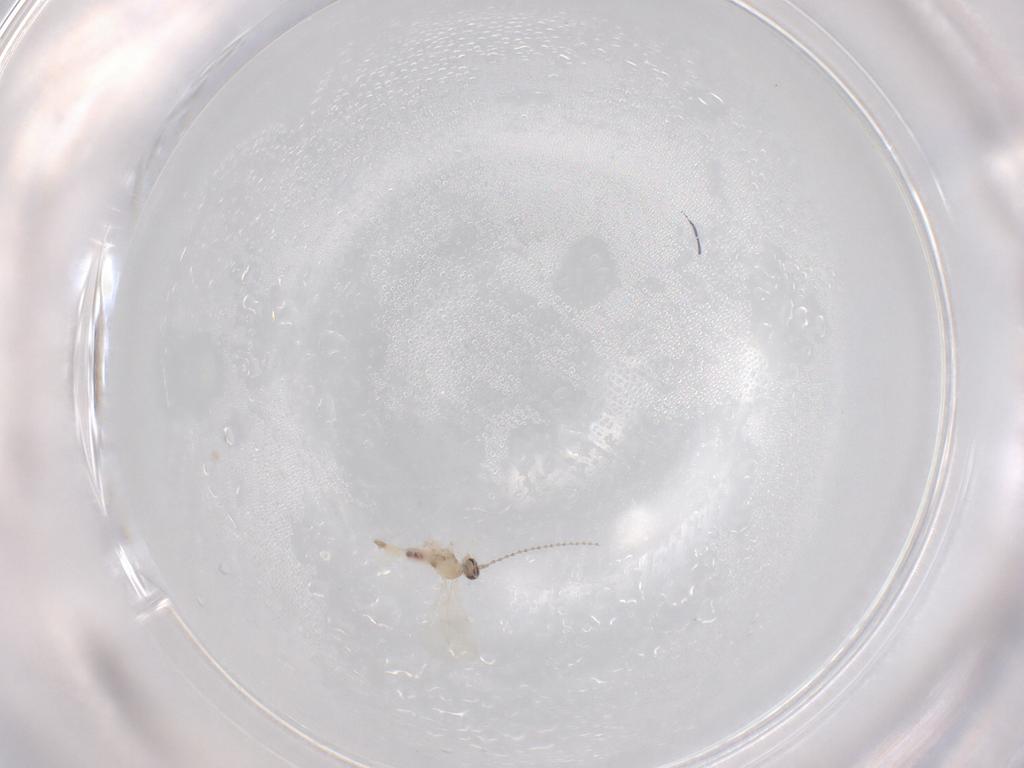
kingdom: Animalia
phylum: Arthropoda
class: Insecta
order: Diptera
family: Cecidomyiidae
